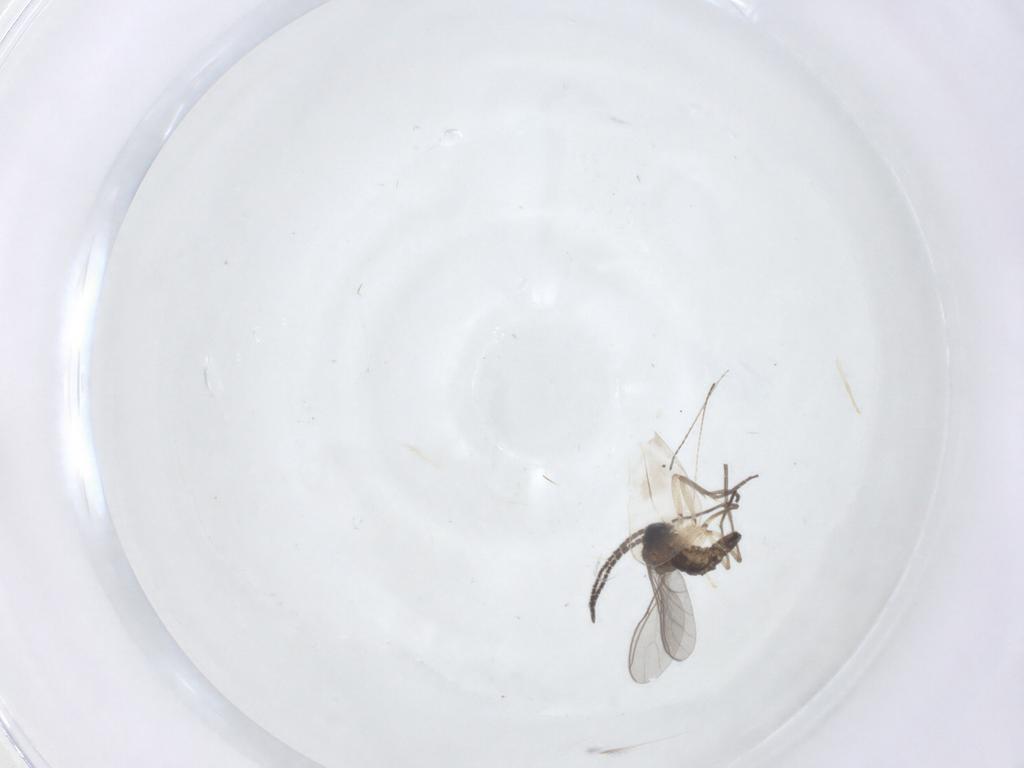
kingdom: Animalia
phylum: Arthropoda
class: Insecta
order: Diptera
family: Sciaridae
